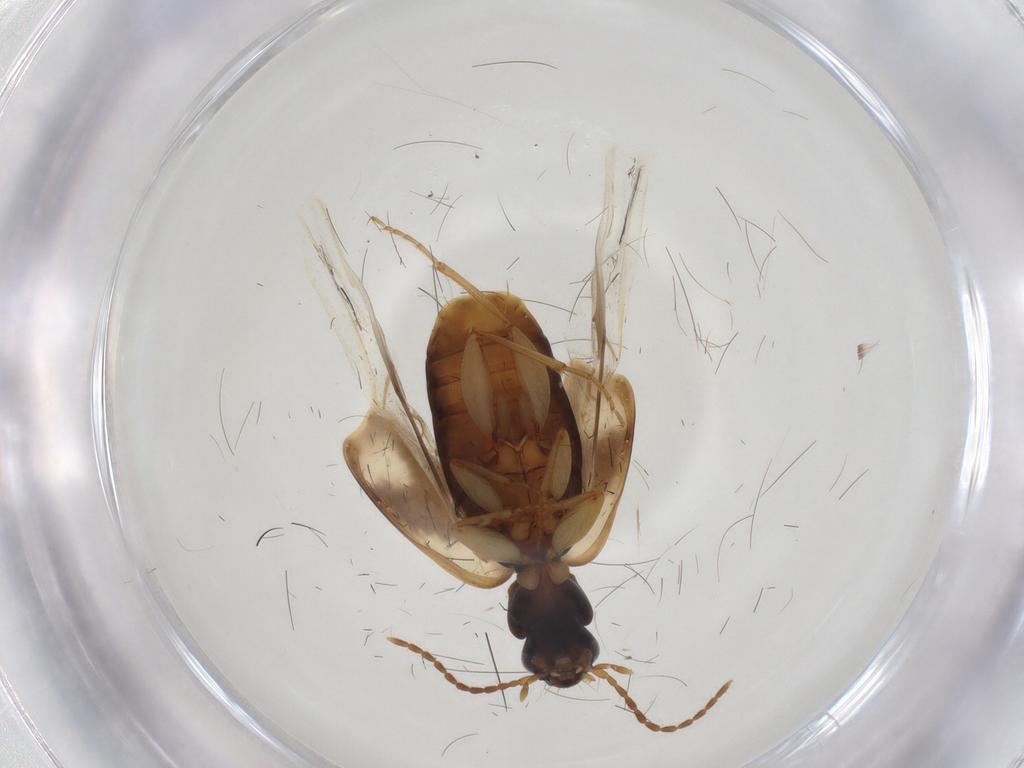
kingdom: Animalia
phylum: Arthropoda
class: Insecta
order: Coleoptera
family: Carabidae
